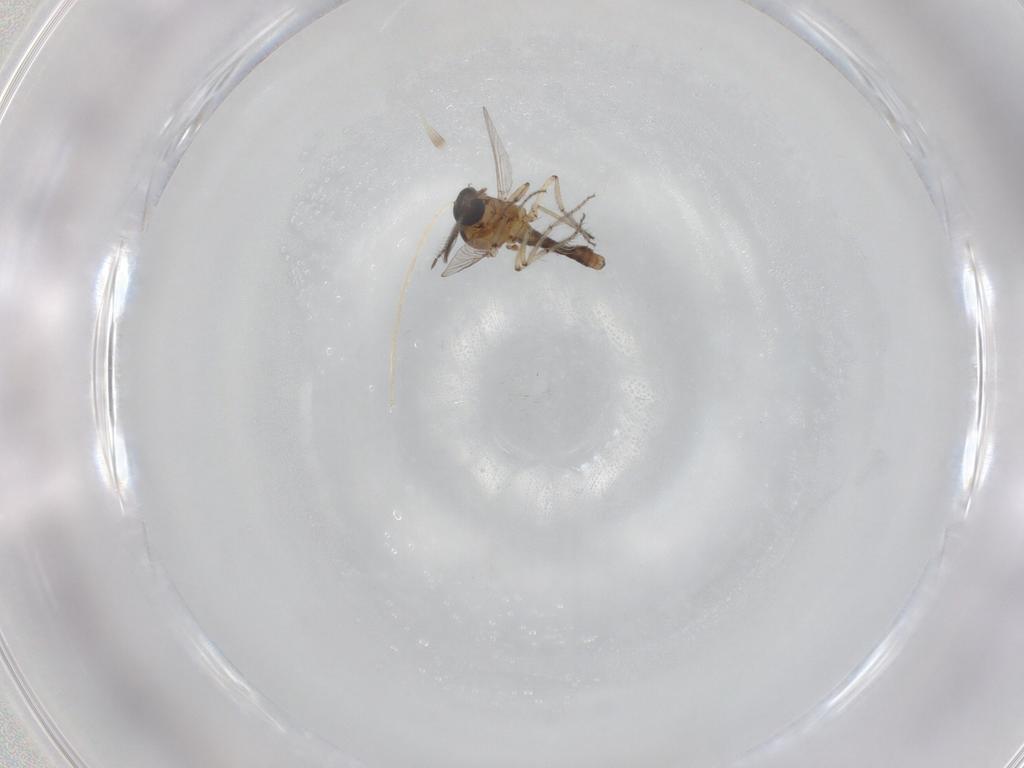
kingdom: Animalia
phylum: Arthropoda
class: Insecta
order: Diptera
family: Ceratopogonidae
